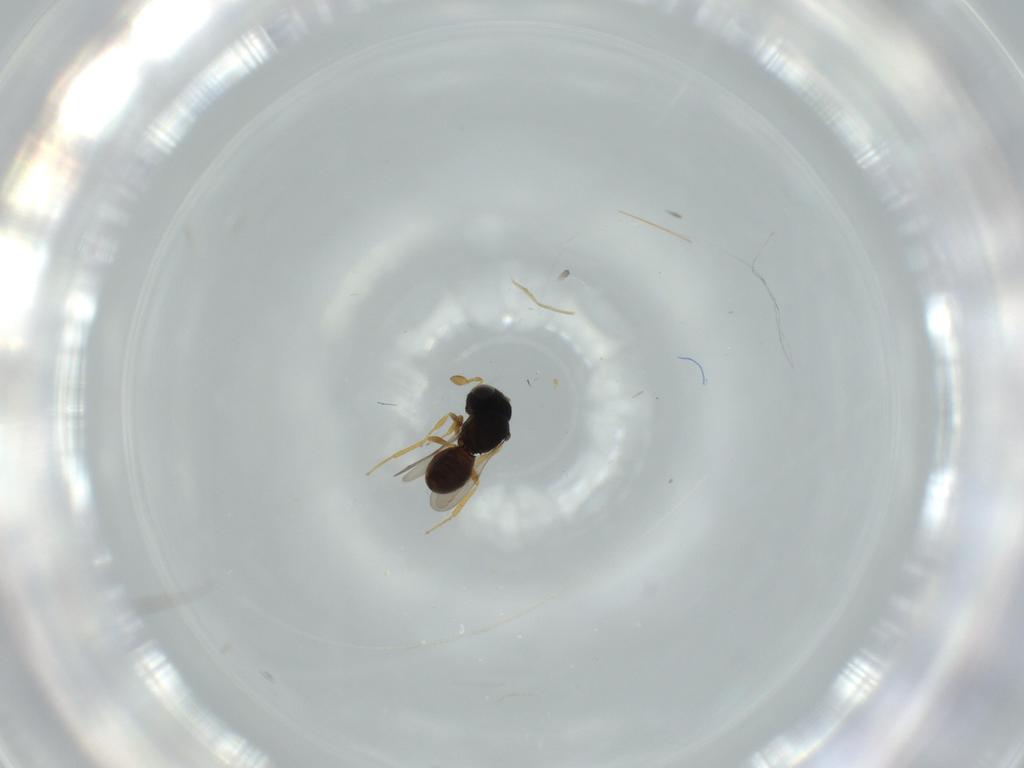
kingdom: Animalia
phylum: Arthropoda
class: Insecta
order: Hymenoptera
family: Scelionidae
